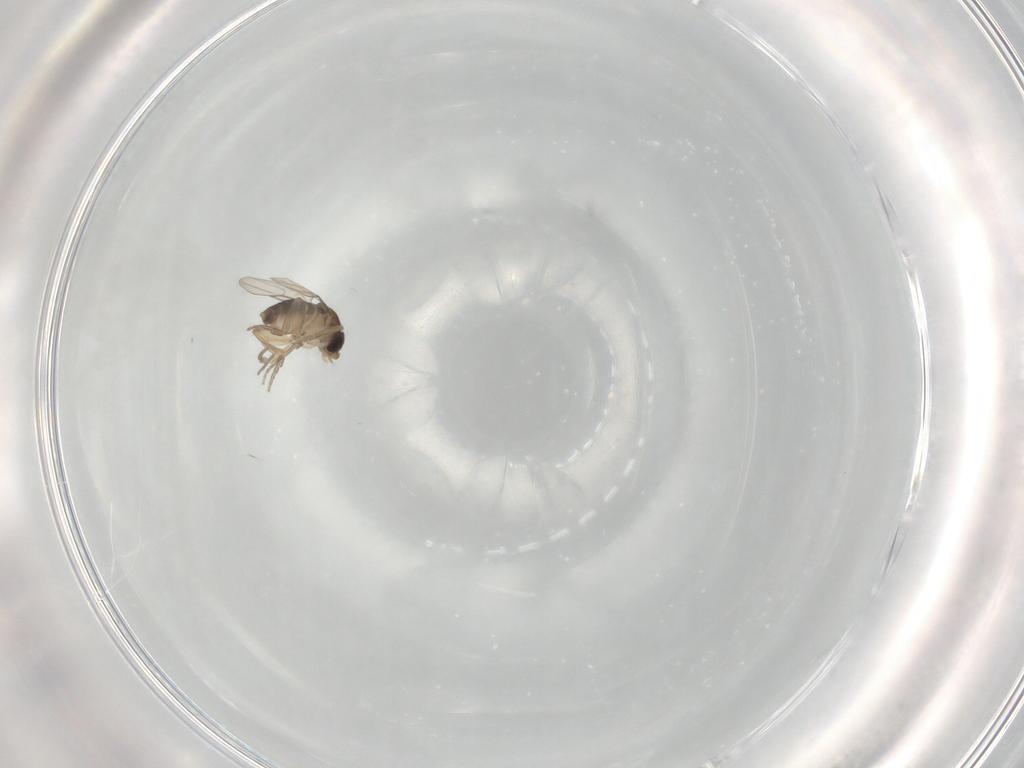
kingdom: Animalia
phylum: Arthropoda
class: Insecta
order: Diptera
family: Phoridae
